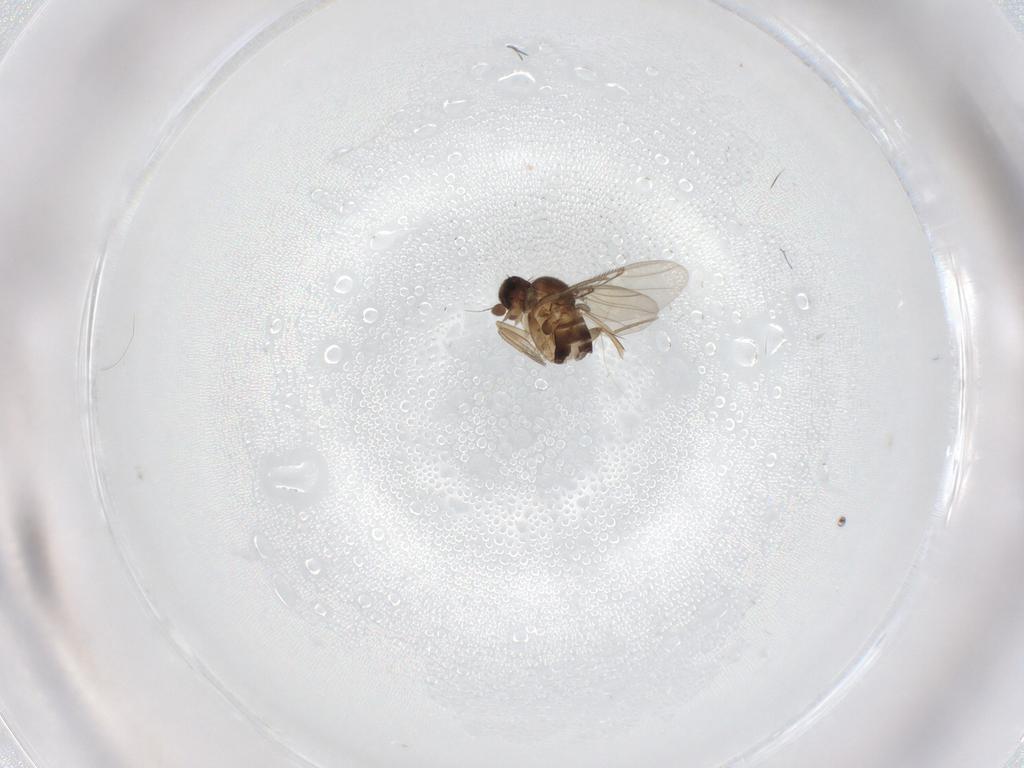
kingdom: Animalia
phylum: Arthropoda
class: Insecta
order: Diptera
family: Phoridae
